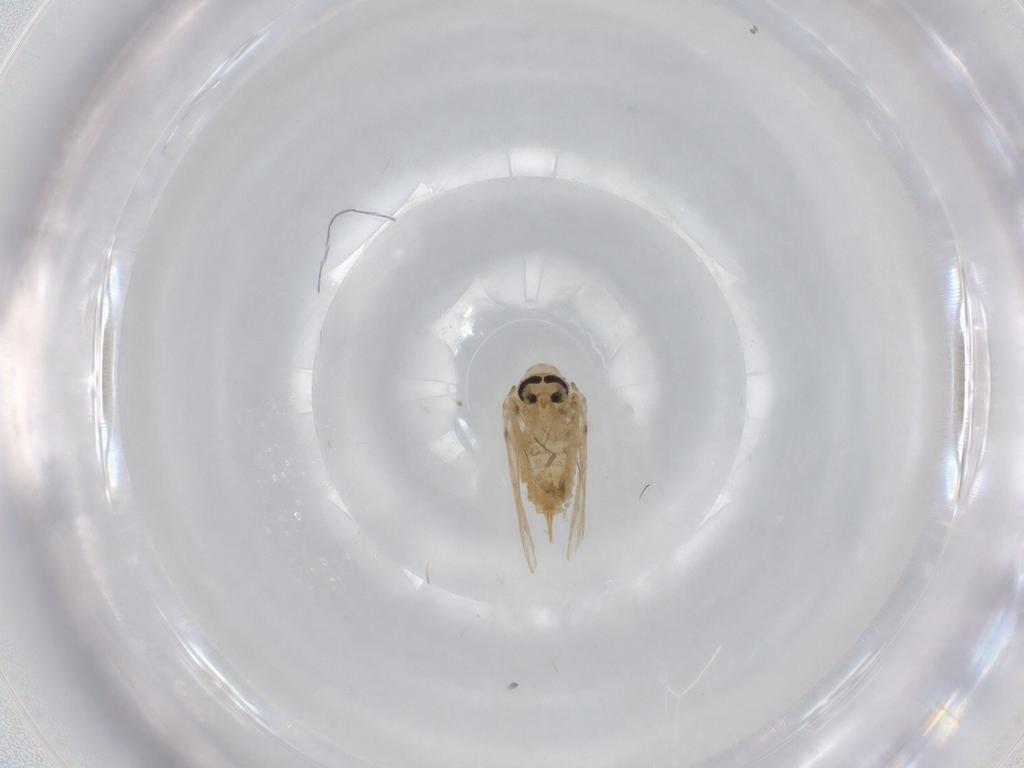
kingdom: Animalia
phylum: Arthropoda
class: Insecta
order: Diptera
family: Psychodidae
